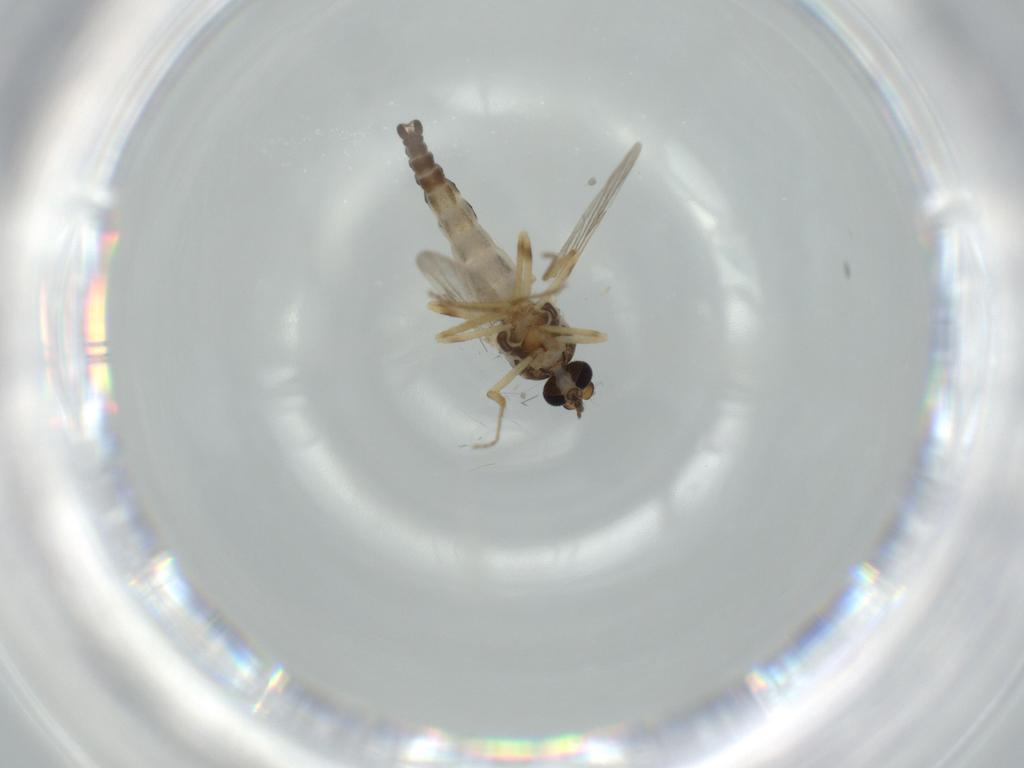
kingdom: Animalia
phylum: Arthropoda
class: Insecta
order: Diptera
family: Ceratopogonidae
